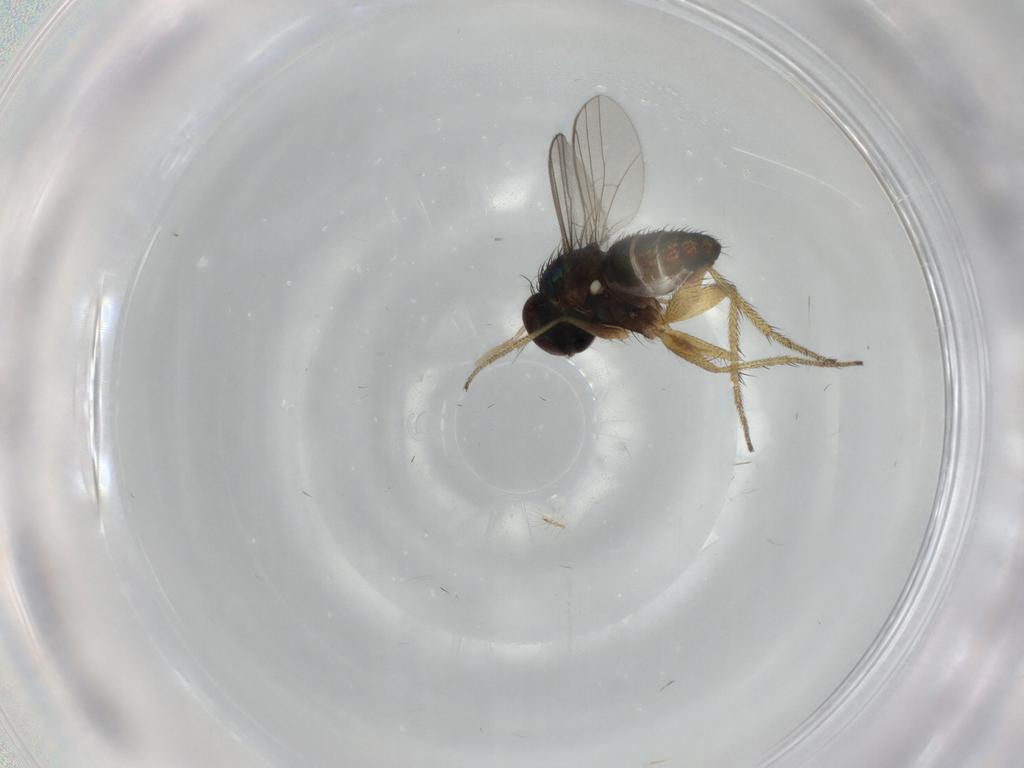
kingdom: Animalia
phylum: Arthropoda
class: Insecta
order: Diptera
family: Dolichopodidae
